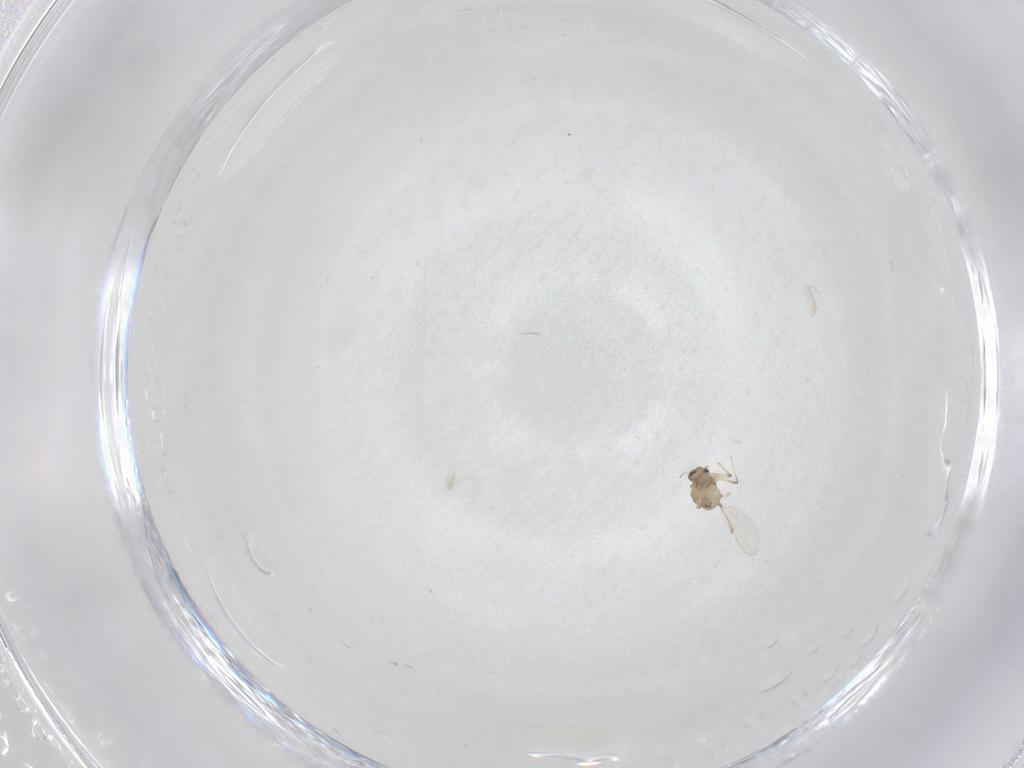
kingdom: Animalia
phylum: Arthropoda
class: Insecta
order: Diptera
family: Chironomidae
